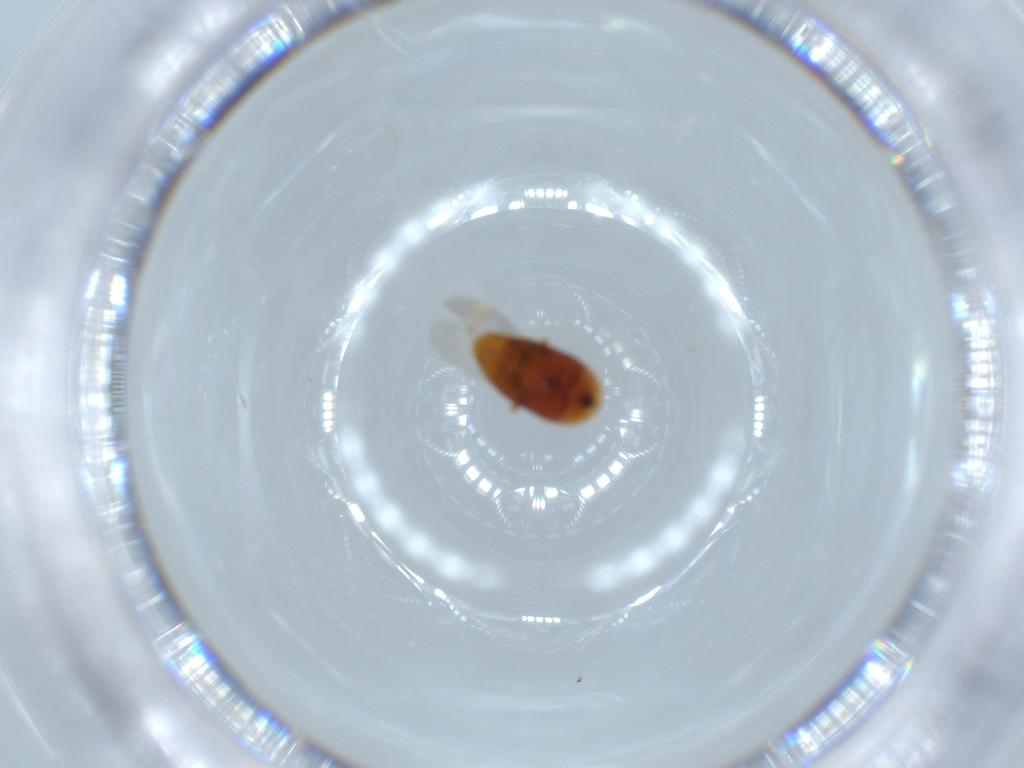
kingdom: Animalia
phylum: Arthropoda
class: Insecta
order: Coleoptera
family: Corylophidae
